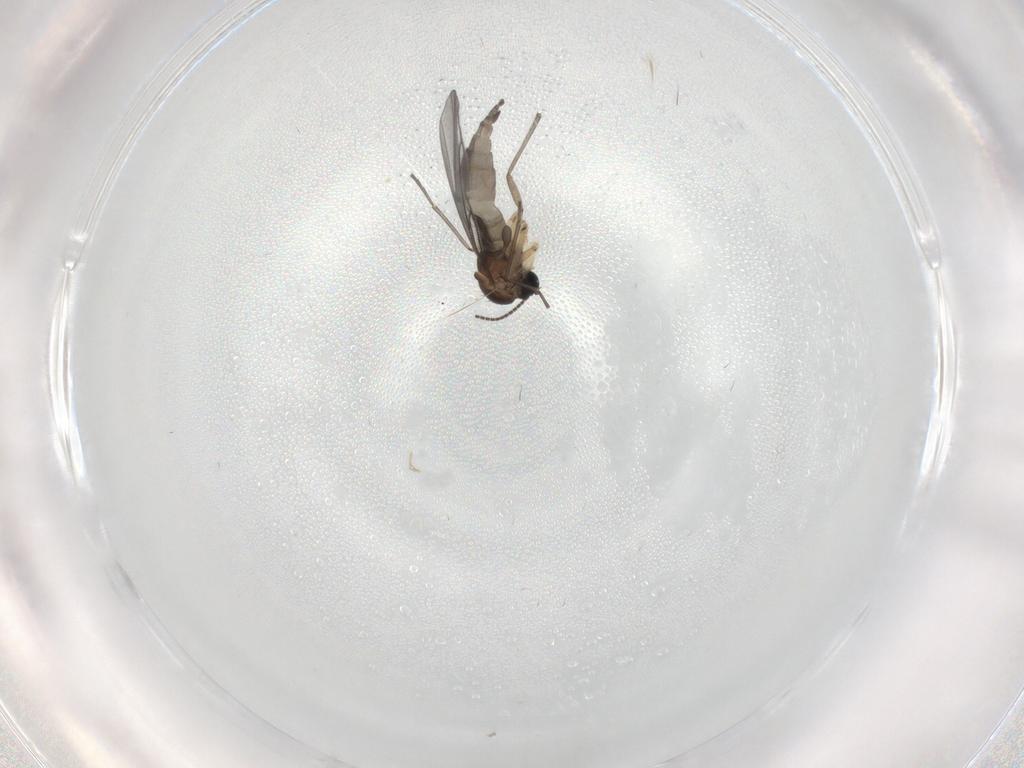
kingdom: Animalia
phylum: Arthropoda
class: Insecta
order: Diptera
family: Sciaridae
